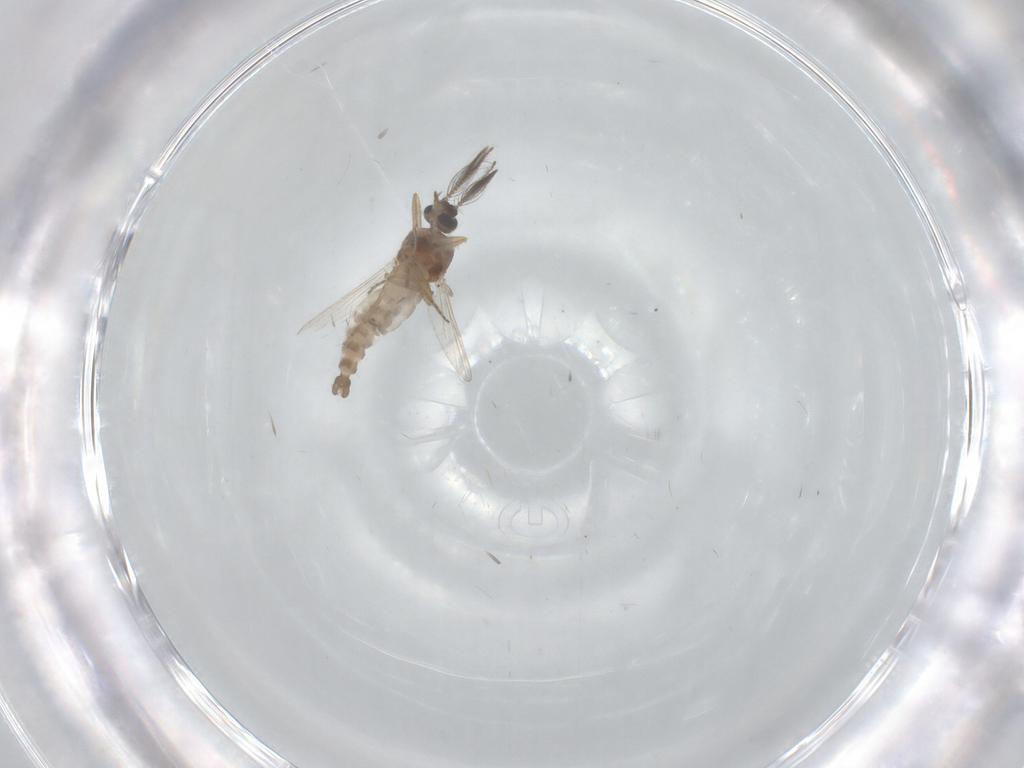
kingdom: Animalia
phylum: Arthropoda
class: Insecta
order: Diptera
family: Ceratopogonidae
